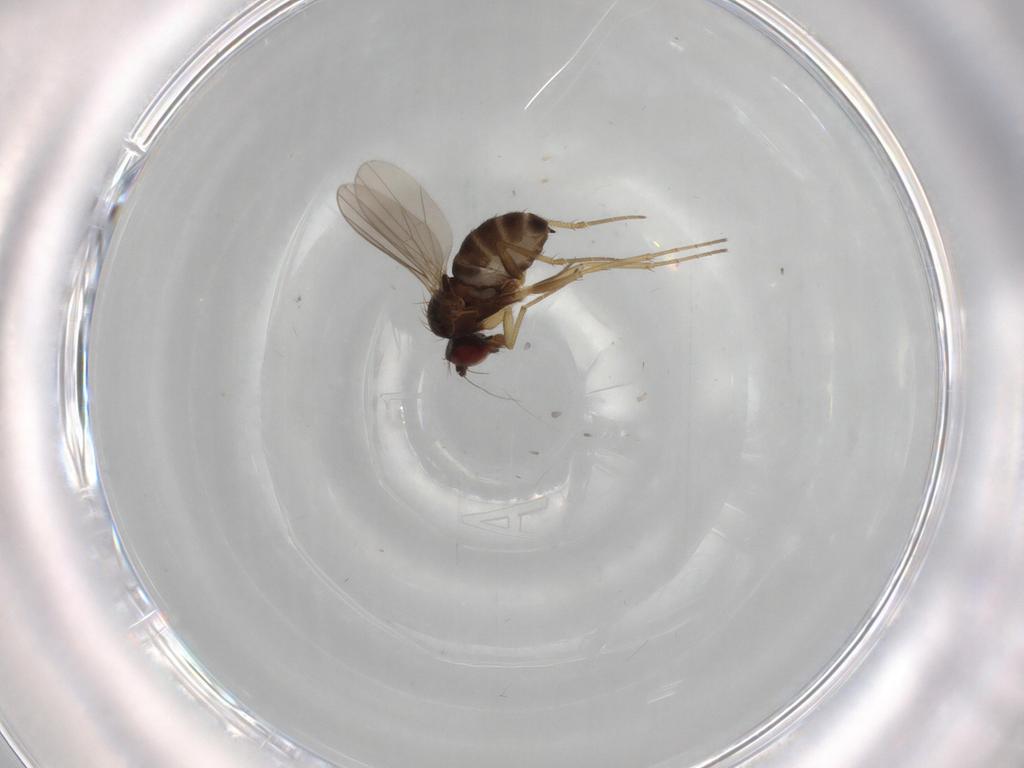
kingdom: Animalia
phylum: Arthropoda
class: Insecta
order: Diptera
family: Dolichopodidae
